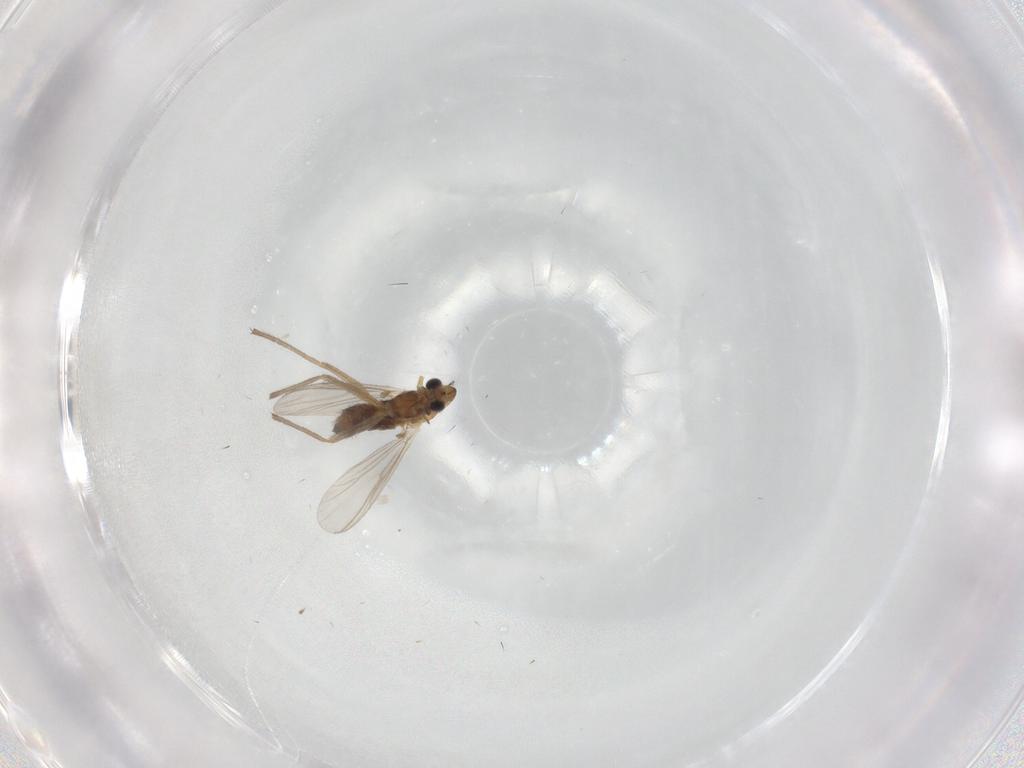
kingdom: Animalia
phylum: Arthropoda
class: Insecta
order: Diptera
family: Chironomidae
